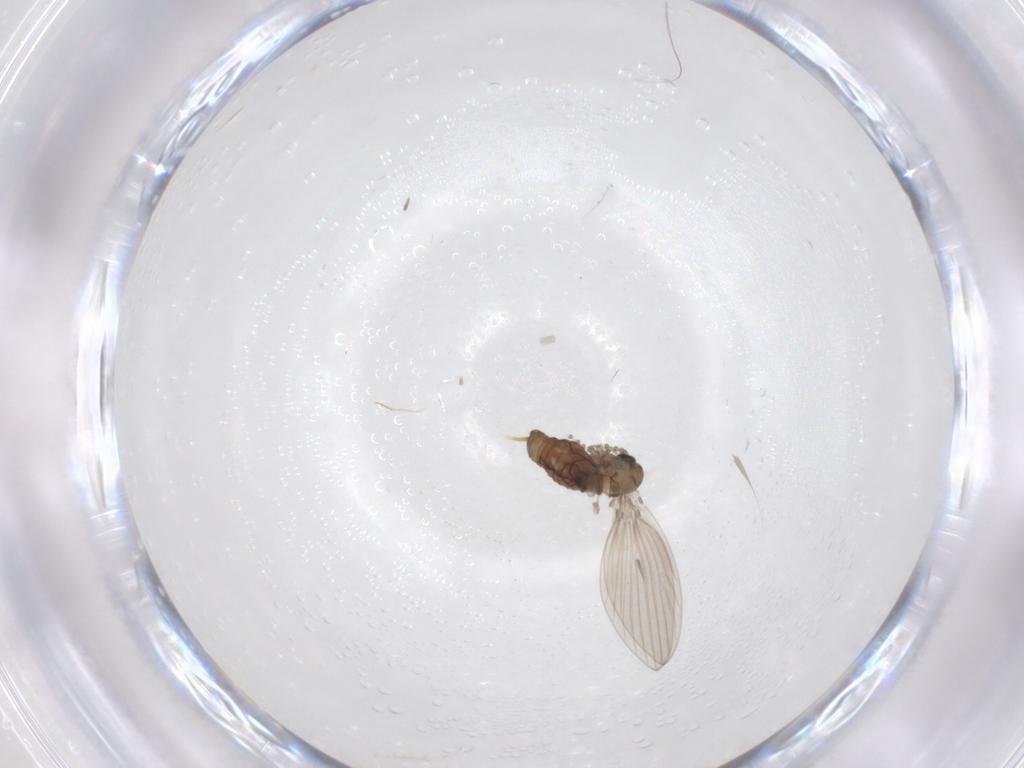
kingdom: Animalia
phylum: Arthropoda
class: Insecta
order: Diptera
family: Psychodidae
